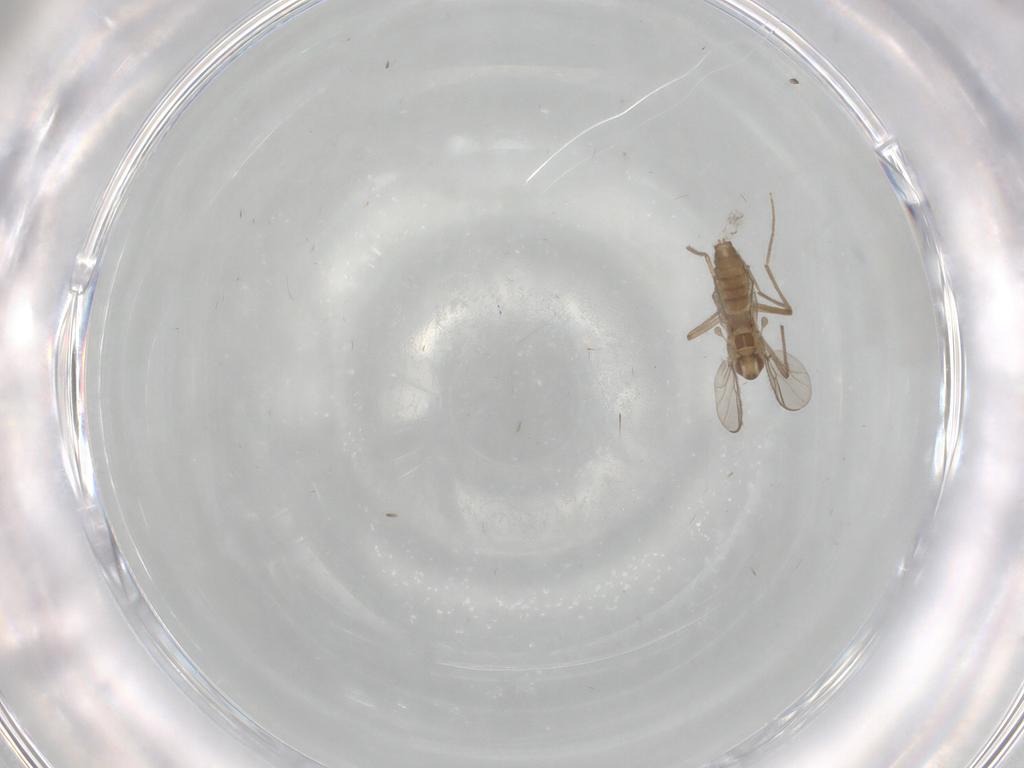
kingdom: Animalia
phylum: Arthropoda
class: Insecta
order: Diptera
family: Chironomidae
